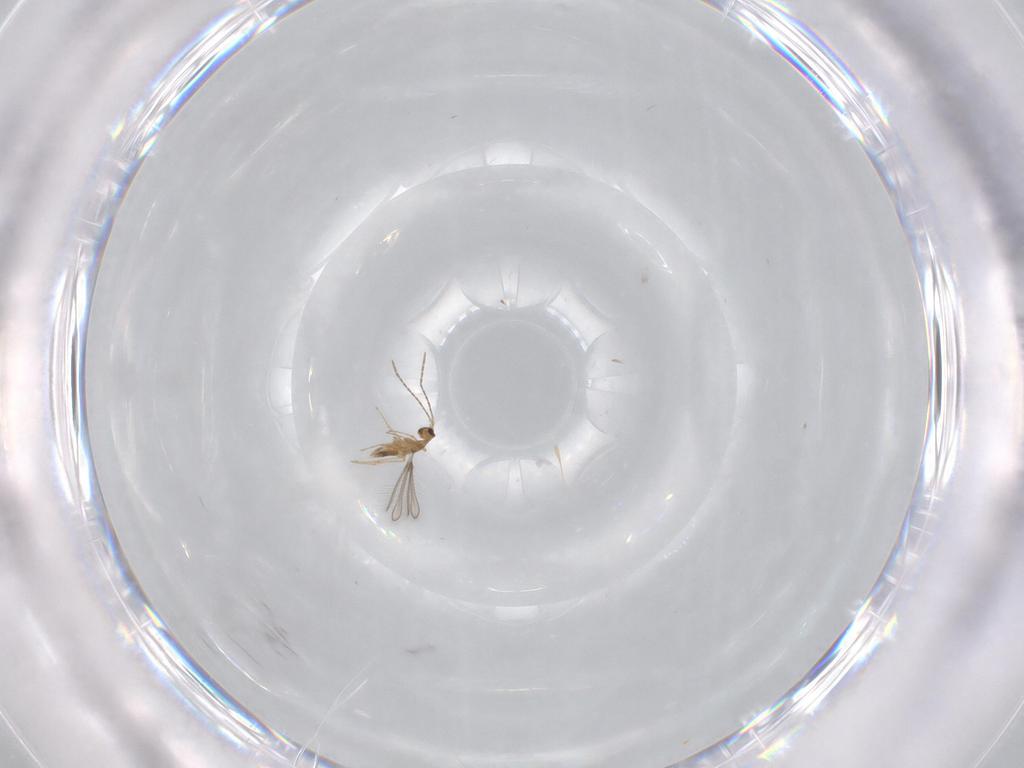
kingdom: Animalia
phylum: Arthropoda
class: Insecta
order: Hymenoptera
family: Mymaridae
